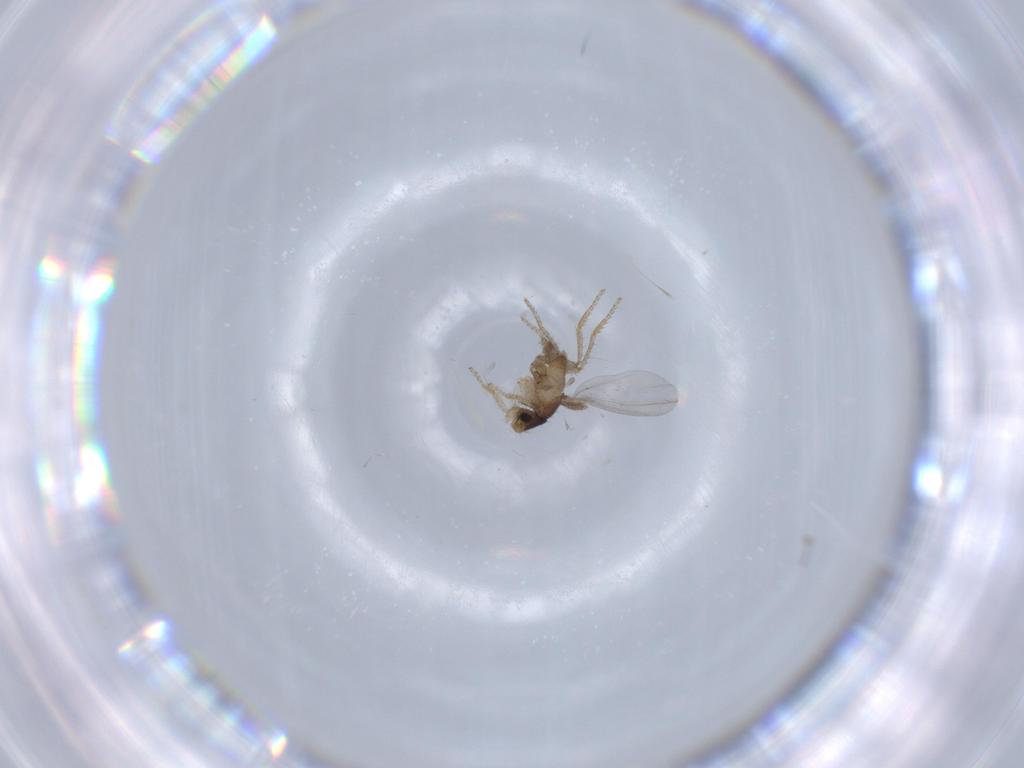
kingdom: Animalia
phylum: Arthropoda
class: Insecta
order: Diptera
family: Phoridae
